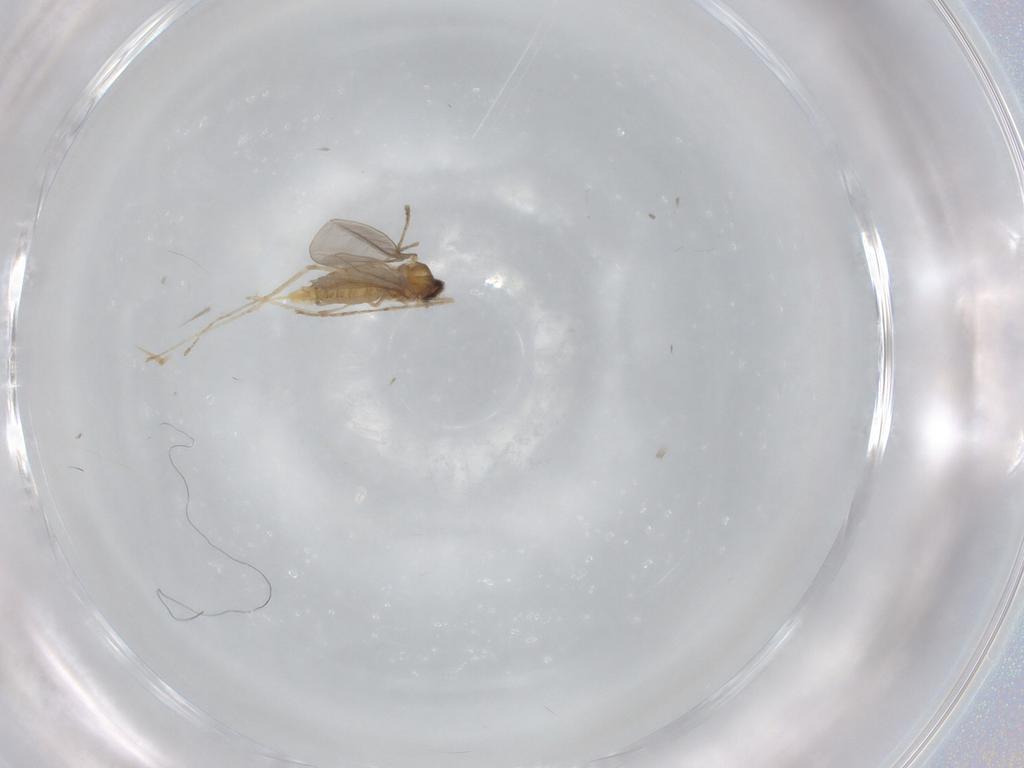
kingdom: Animalia
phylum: Arthropoda
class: Insecta
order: Diptera
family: Cecidomyiidae
